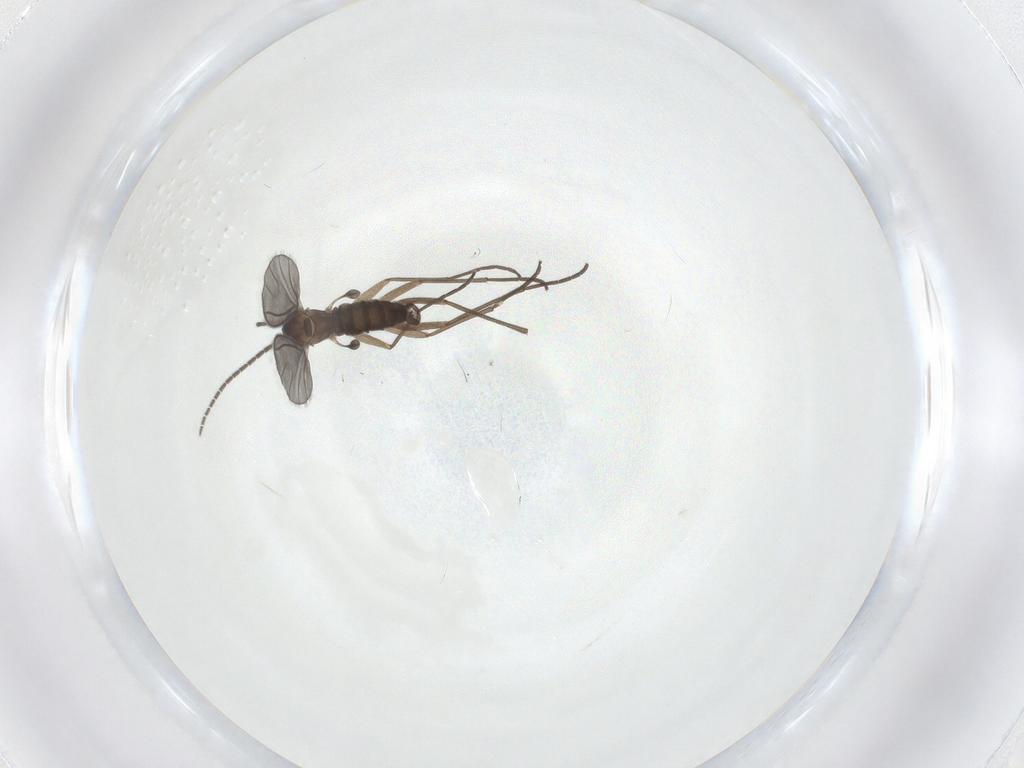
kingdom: Animalia
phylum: Arthropoda
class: Insecta
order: Diptera
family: Sciaridae
